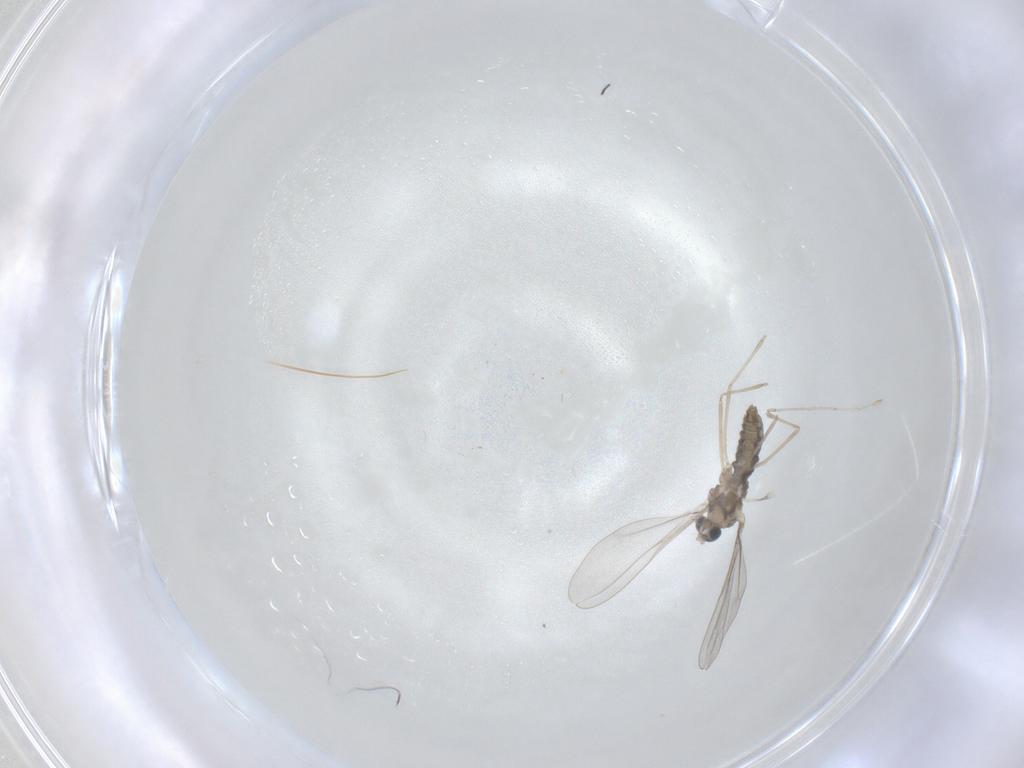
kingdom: Animalia
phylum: Arthropoda
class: Insecta
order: Diptera
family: Cecidomyiidae
